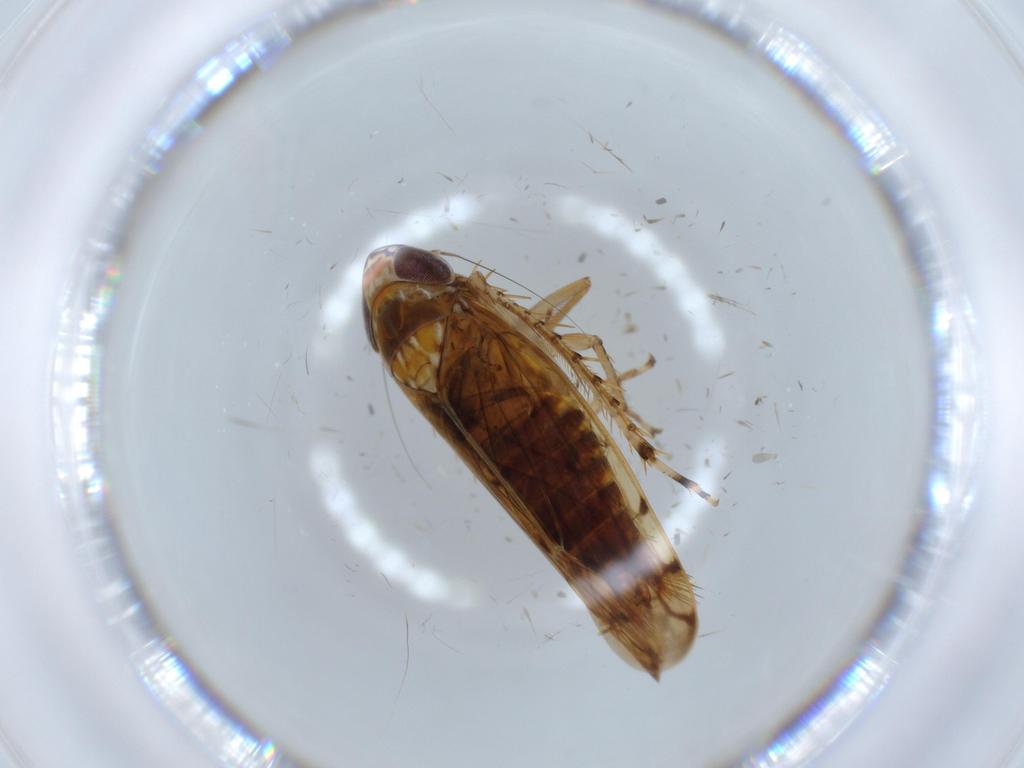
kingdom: Animalia
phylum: Arthropoda
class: Insecta
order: Hemiptera
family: Cicadellidae
